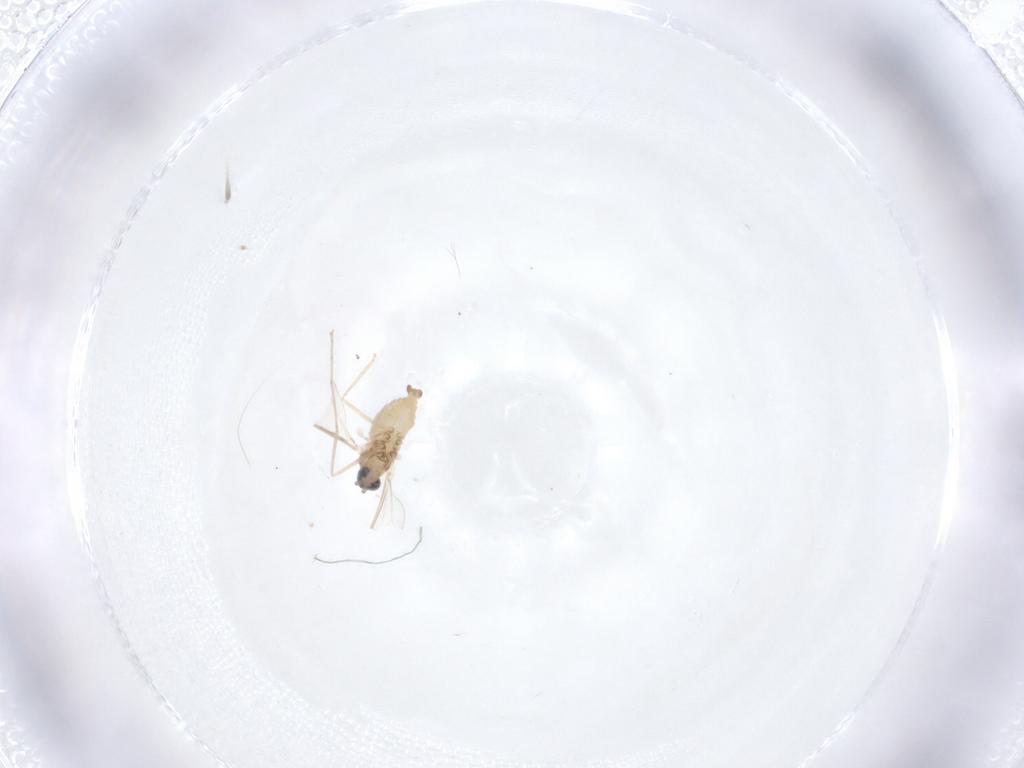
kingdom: Animalia
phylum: Arthropoda
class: Insecta
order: Diptera
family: Cecidomyiidae
